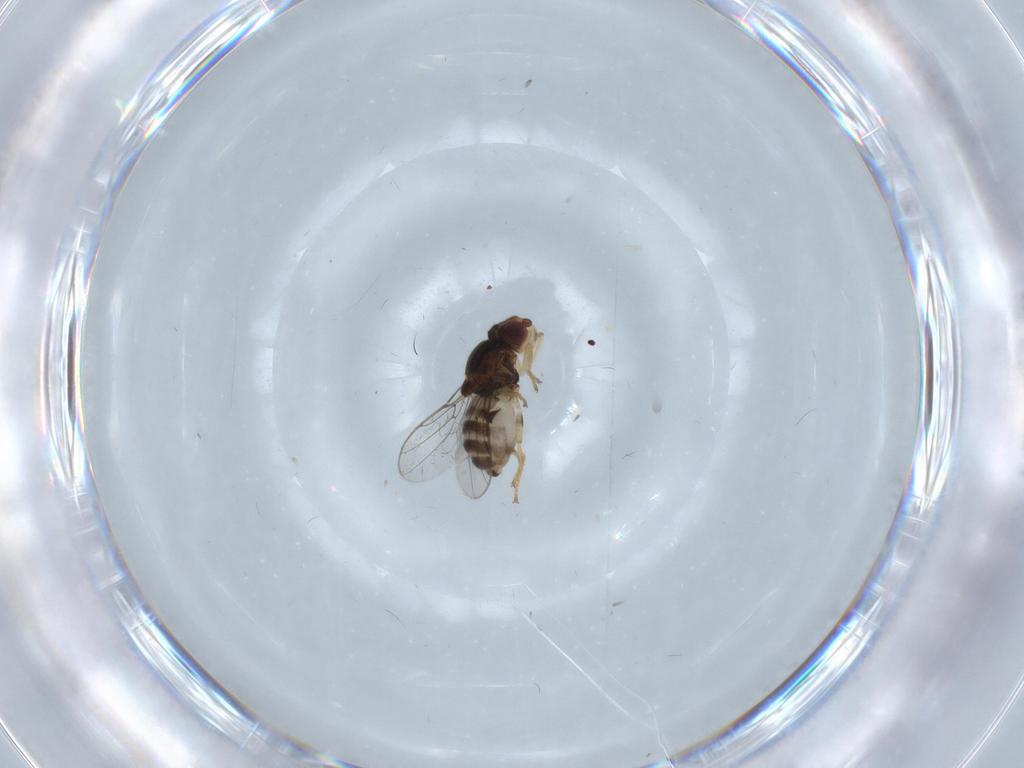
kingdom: Animalia
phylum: Arthropoda
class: Insecta
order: Diptera
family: Chloropidae
